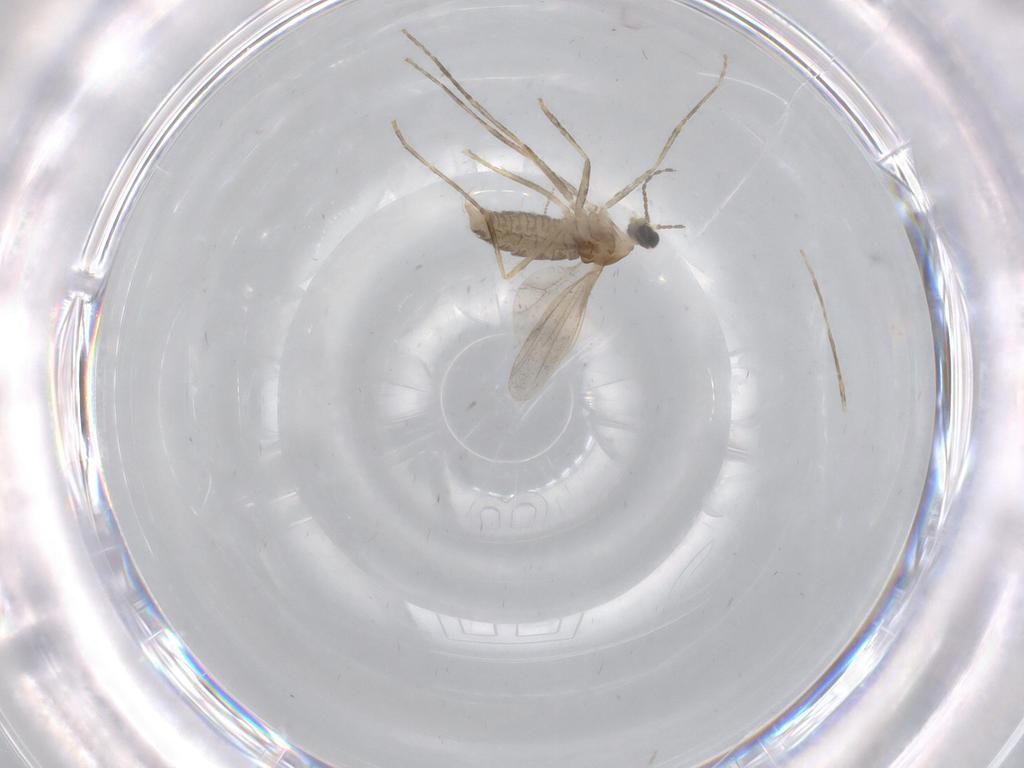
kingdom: Animalia
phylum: Arthropoda
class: Insecta
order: Diptera
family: Cecidomyiidae
